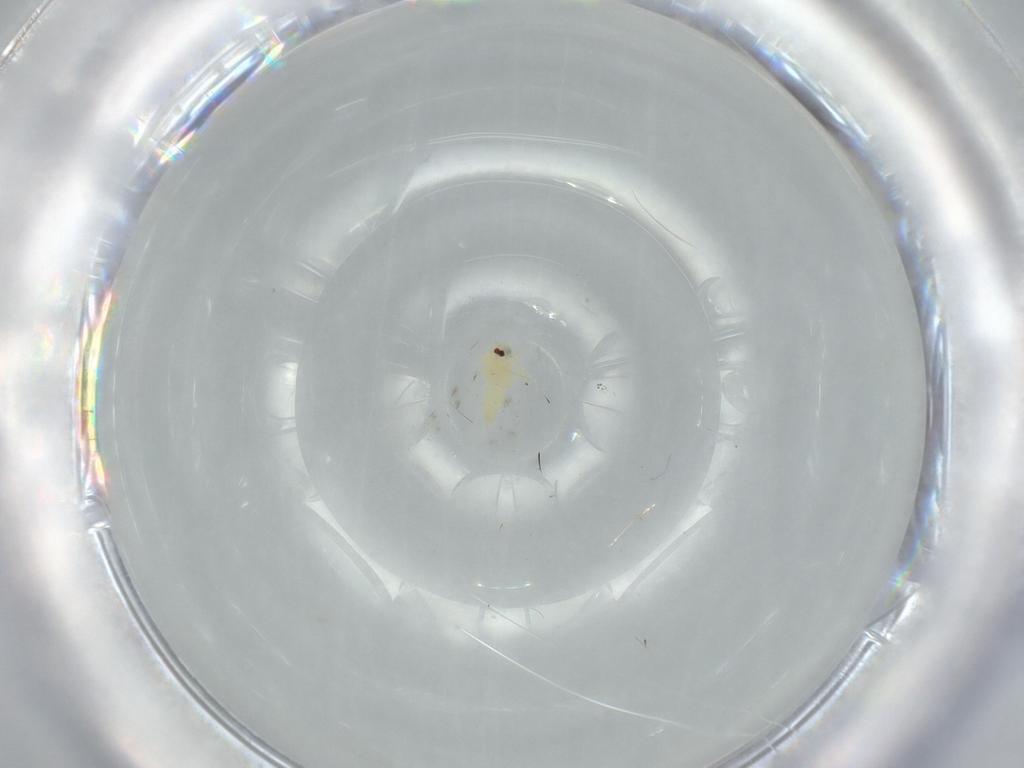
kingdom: Animalia
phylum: Arthropoda
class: Insecta
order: Hemiptera
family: Aleyrodidae
